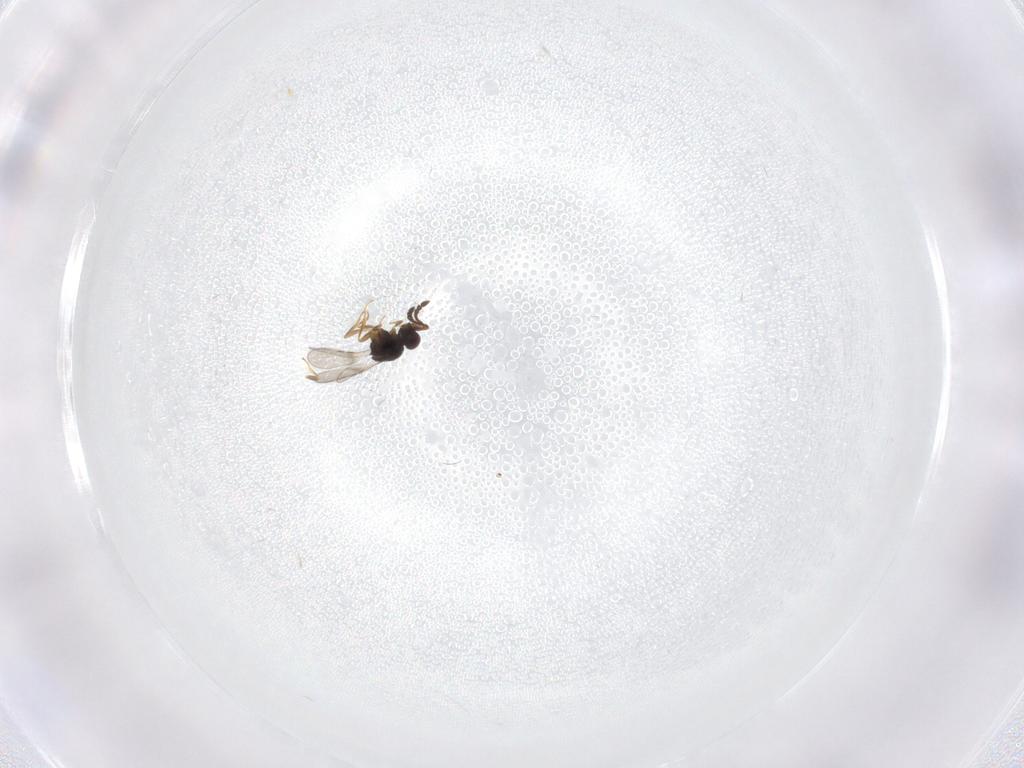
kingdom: Animalia
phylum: Arthropoda
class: Insecta
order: Hymenoptera
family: Ceraphronidae
